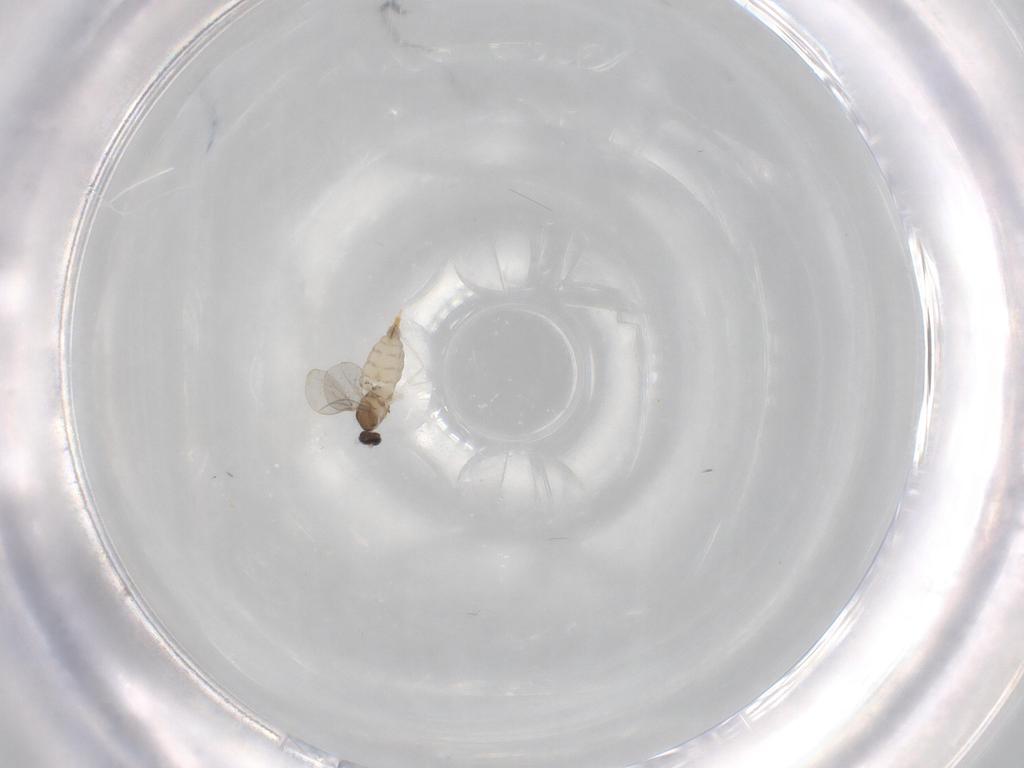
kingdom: Animalia
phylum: Arthropoda
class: Insecta
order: Diptera
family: Cecidomyiidae
